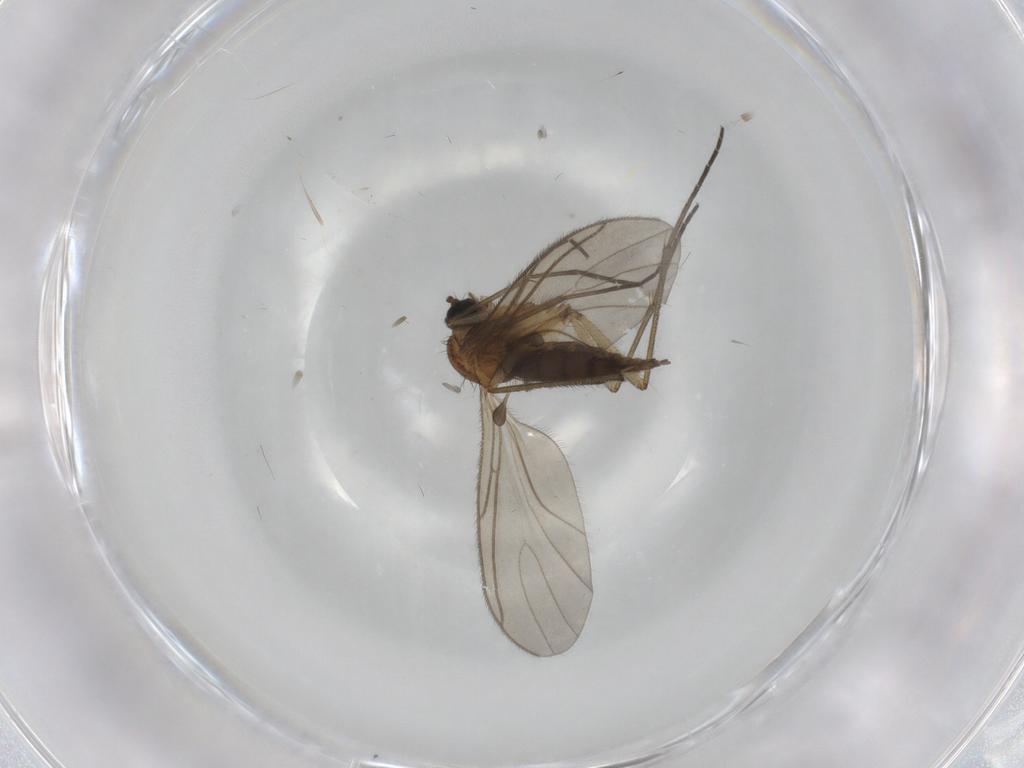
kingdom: Animalia
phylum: Arthropoda
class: Insecta
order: Diptera
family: Sciaridae
